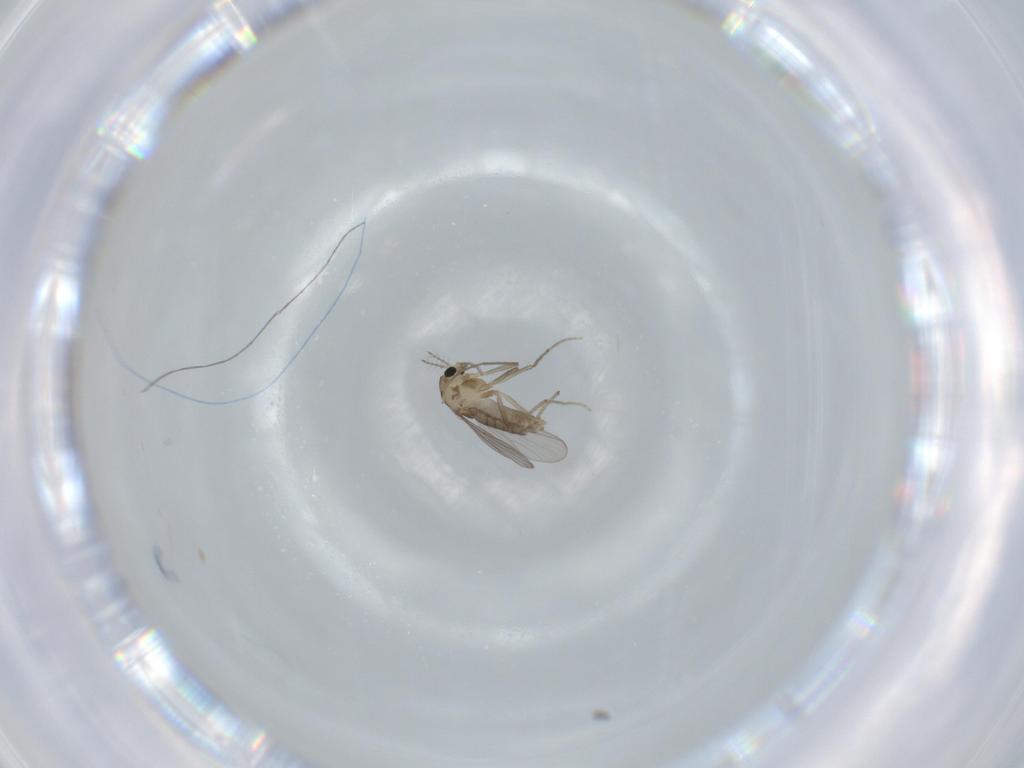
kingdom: Animalia
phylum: Arthropoda
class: Insecta
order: Diptera
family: Chironomidae
